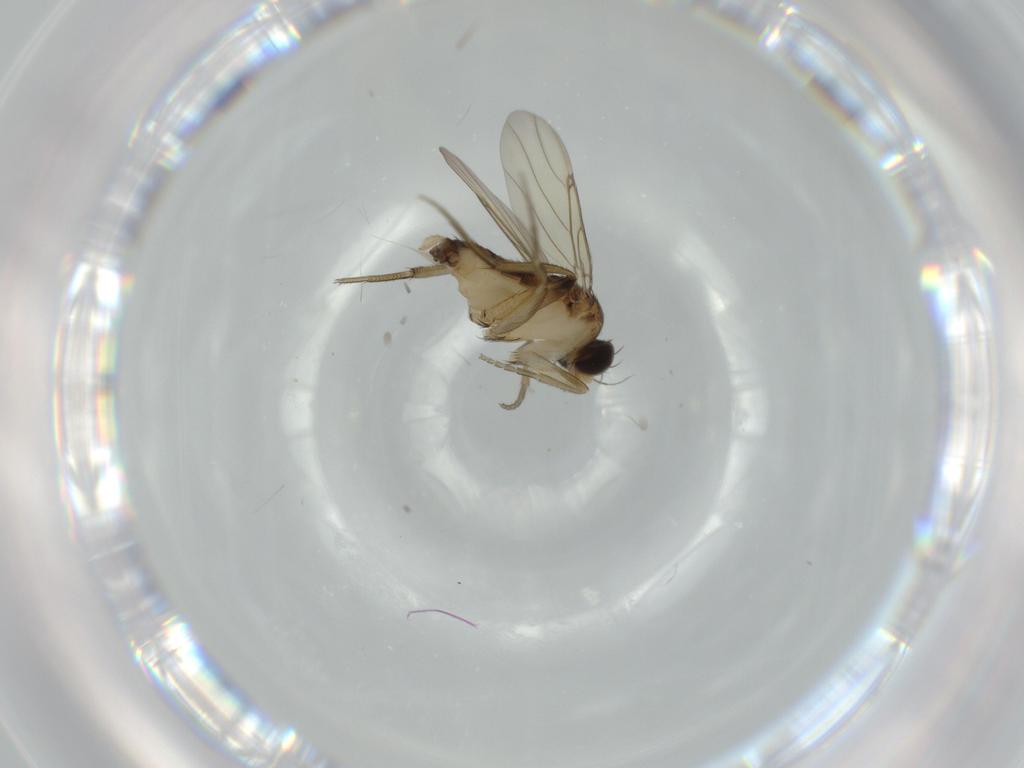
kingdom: Animalia
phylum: Arthropoda
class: Insecta
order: Diptera
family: Phoridae
